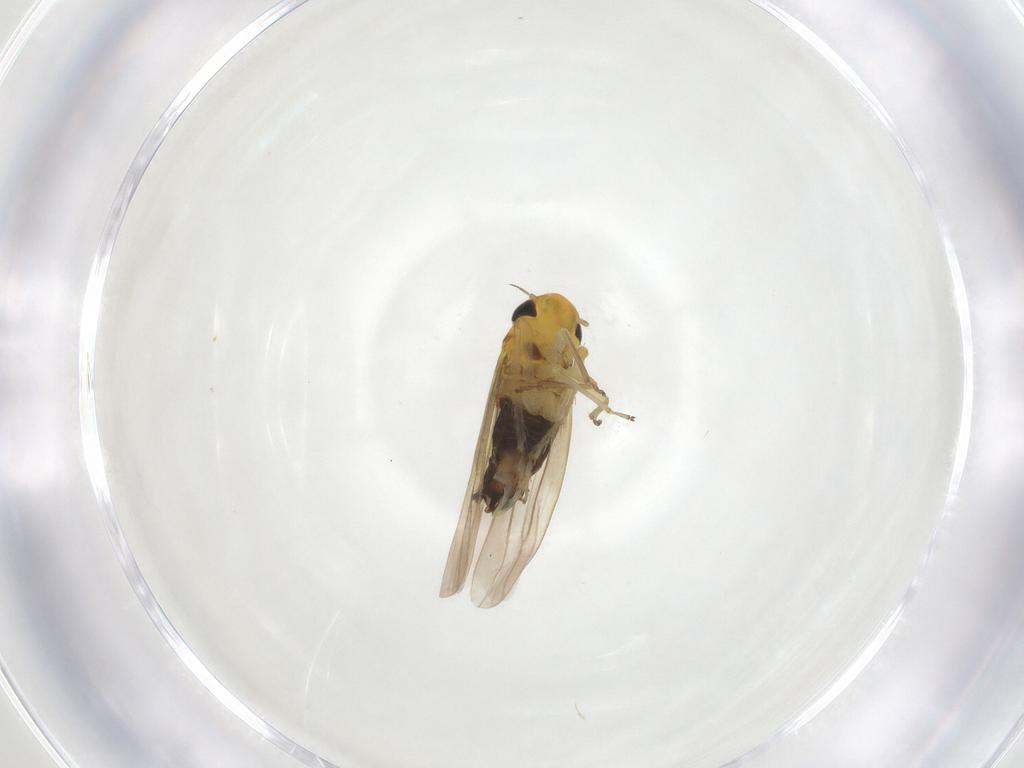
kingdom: Animalia
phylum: Arthropoda
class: Insecta
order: Hemiptera
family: Cicadellidae
